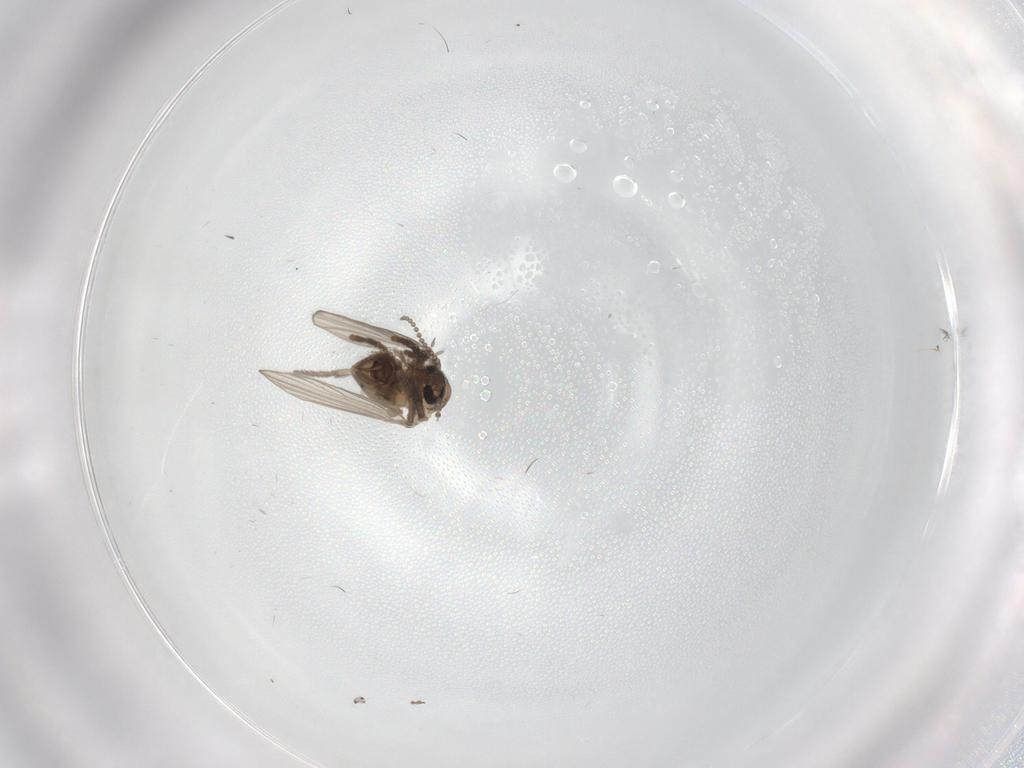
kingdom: Animalia
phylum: Arthropoda
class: Insecta
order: Diptera
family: Psychodidae
